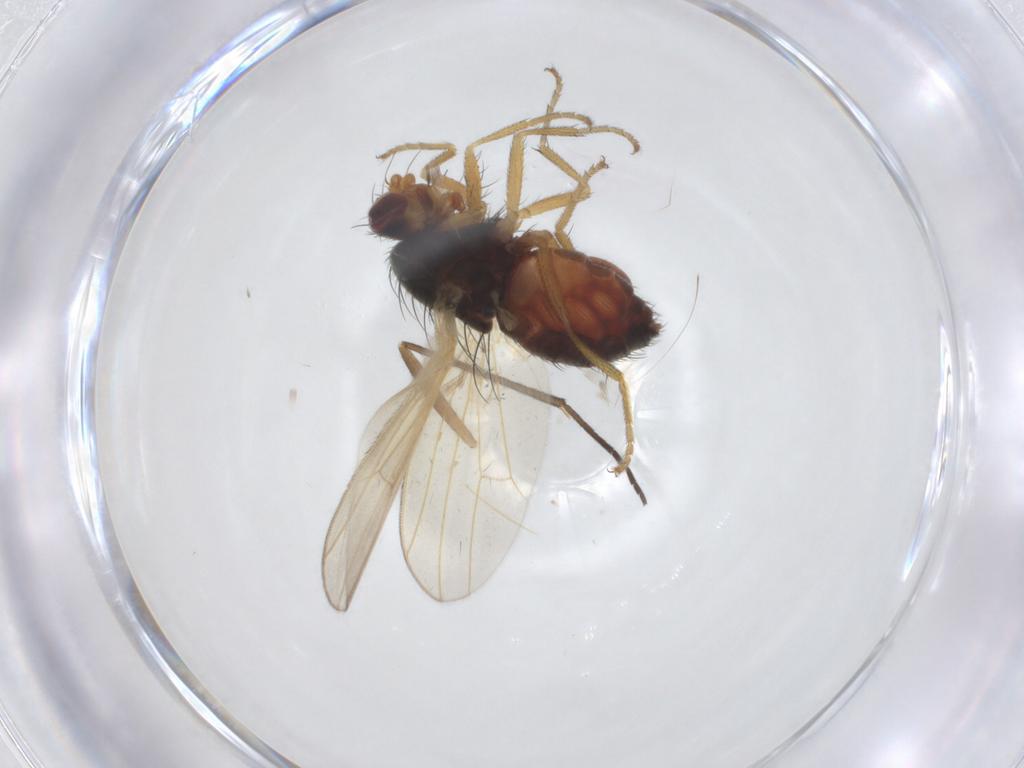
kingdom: Animalia
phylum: Arthropoda
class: Insecta
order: Diptera
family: Heleomyzidae
